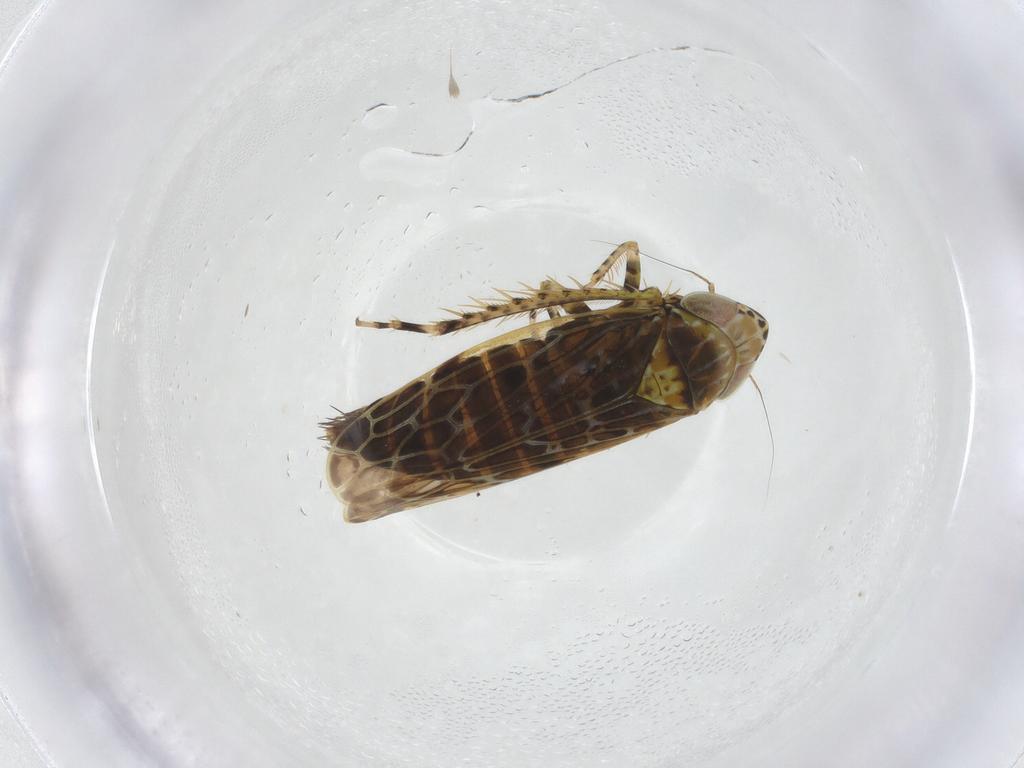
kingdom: Animalia
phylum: Arthropoda
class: Insecta
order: Hemiptera
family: Cicadellidae
